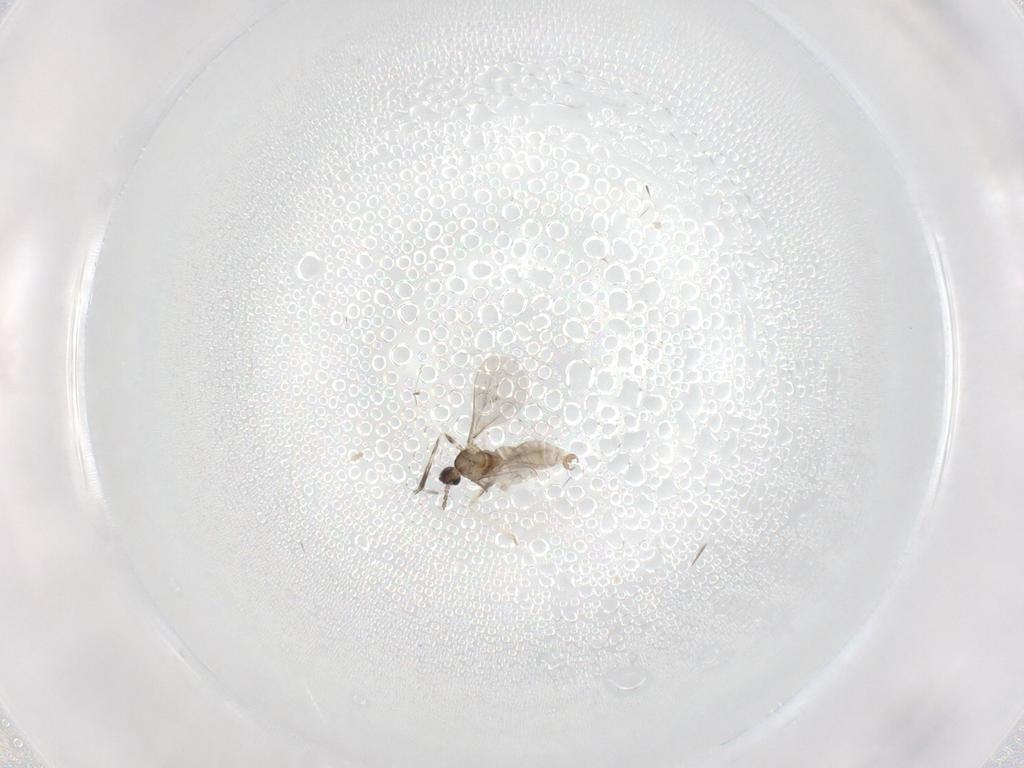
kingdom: Animalia
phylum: Arthropoda
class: Insecta
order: Diptera
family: Cecidomyiidae
